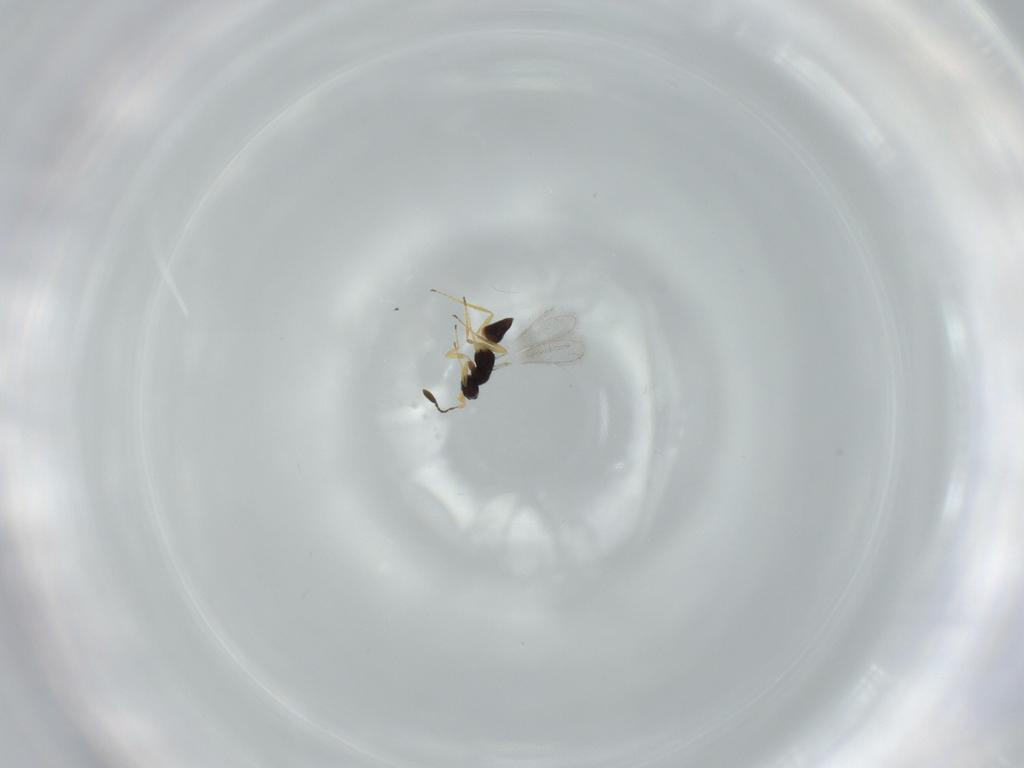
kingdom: Animalia
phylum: Arthropoda
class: Insecta
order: Hymenoptera
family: Mymaridae
